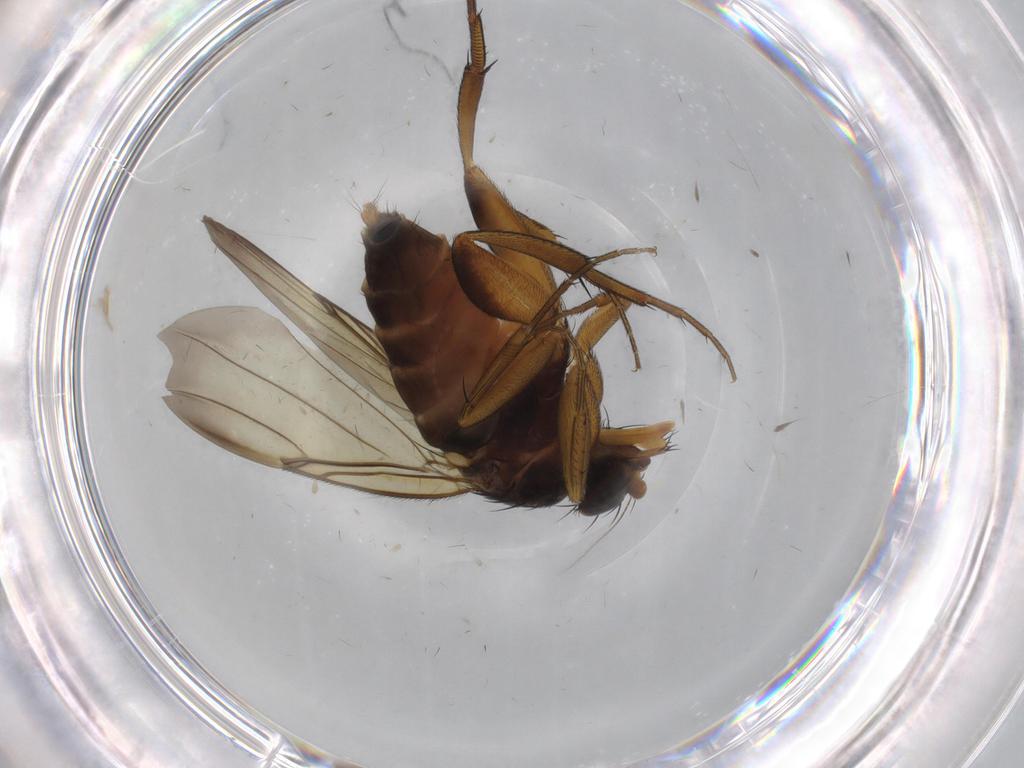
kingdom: Animalia
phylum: Arthropoda
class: Insecta
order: Diptera
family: Phoridae
